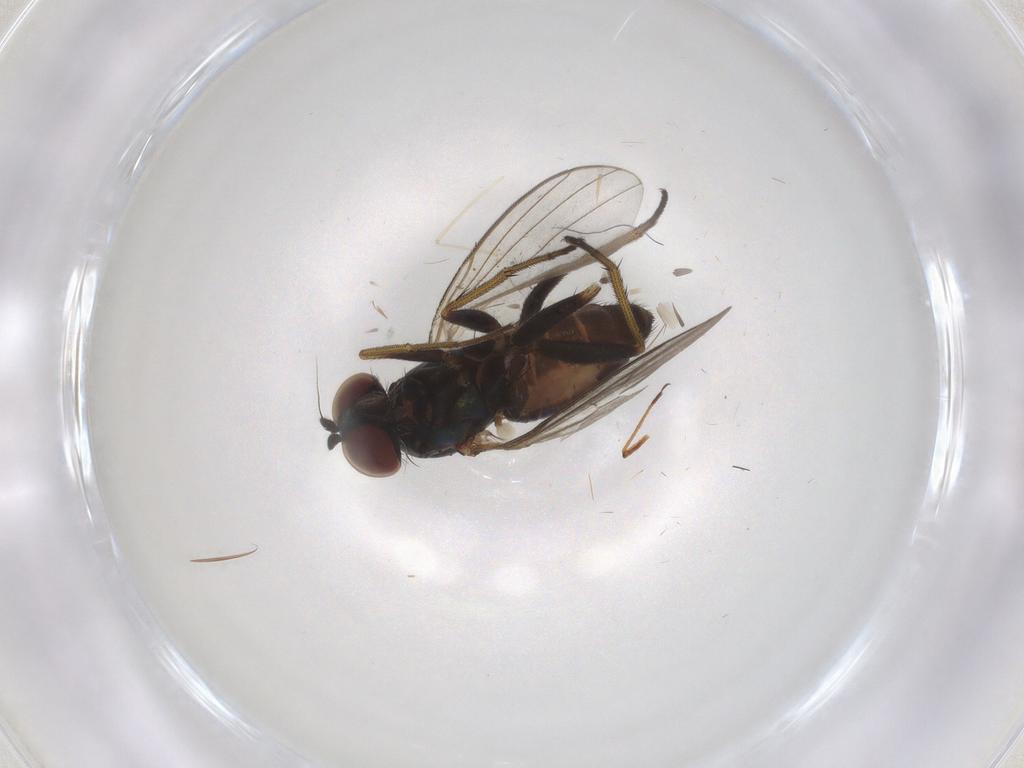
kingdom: Animalia
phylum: Arthropoda
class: Insecta
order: Diptera
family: Dolichopodidae
